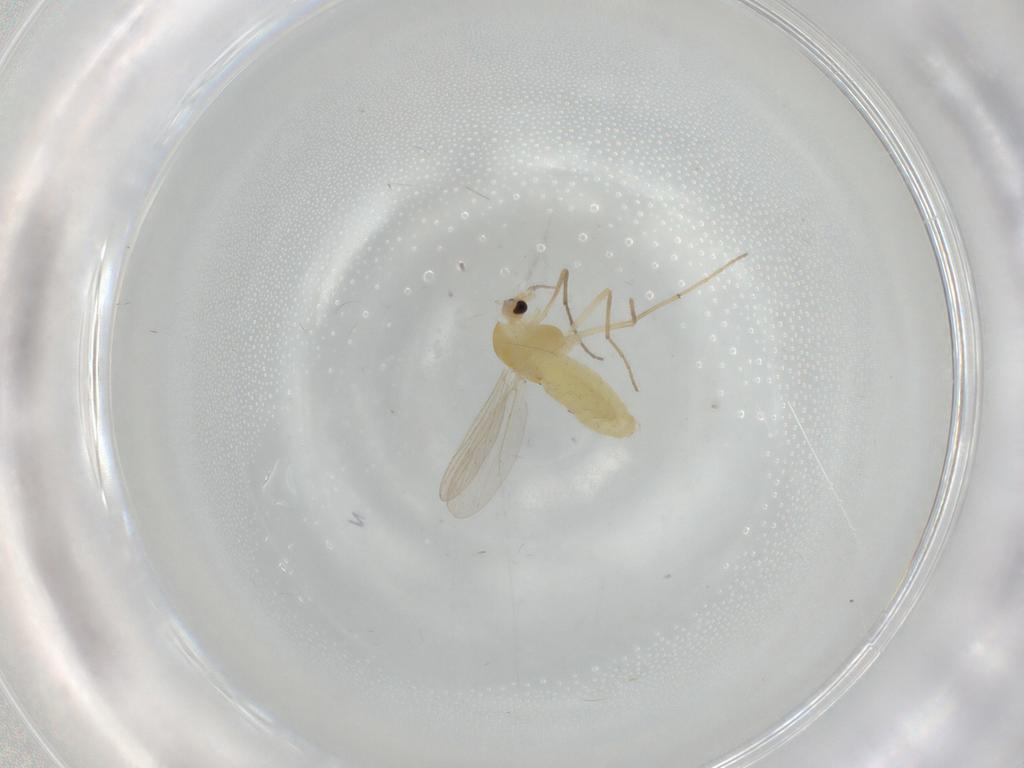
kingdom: Animalia
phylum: Arthropoda
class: Insecta
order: Diptera
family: Chironomidae
